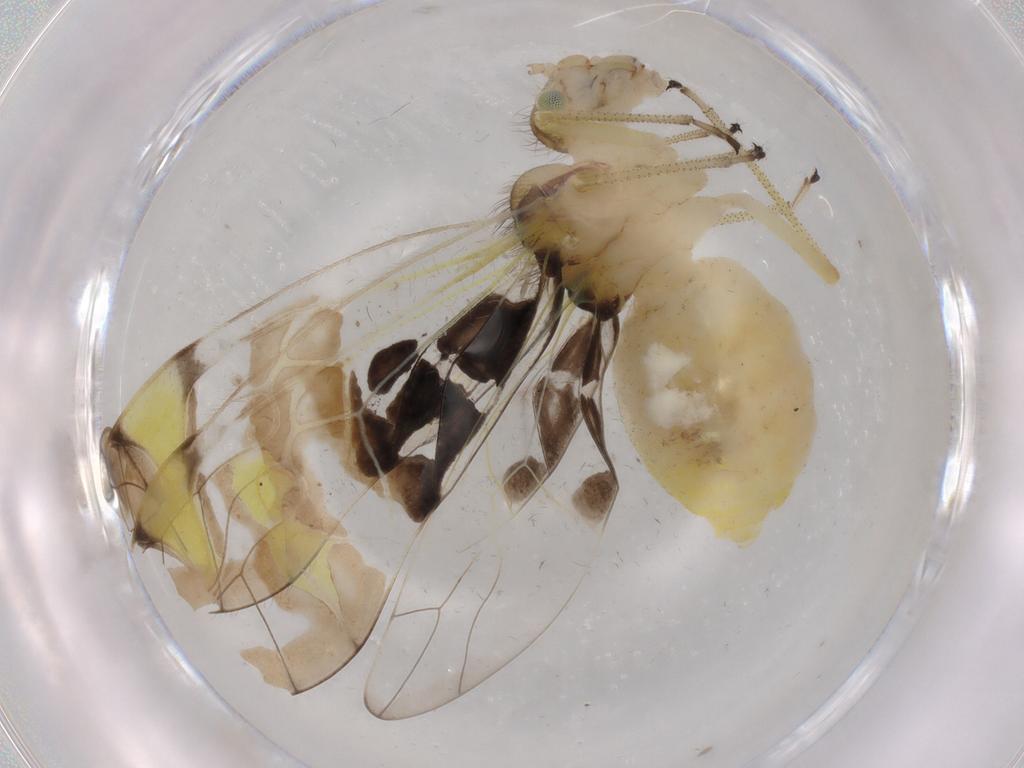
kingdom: Animalia
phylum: Arthropoda
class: Insecta
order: Psocodea
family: Amphipsocidae
